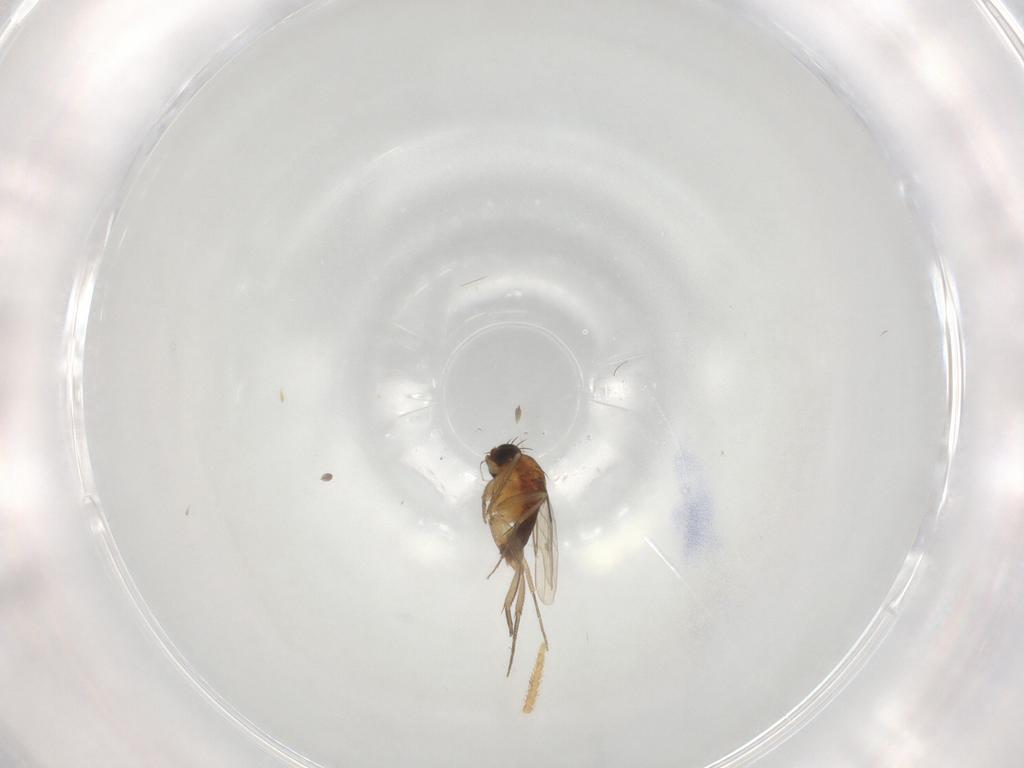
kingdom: Animalia
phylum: Arthropoda
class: Insecta
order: Diptera
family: Phoridae
